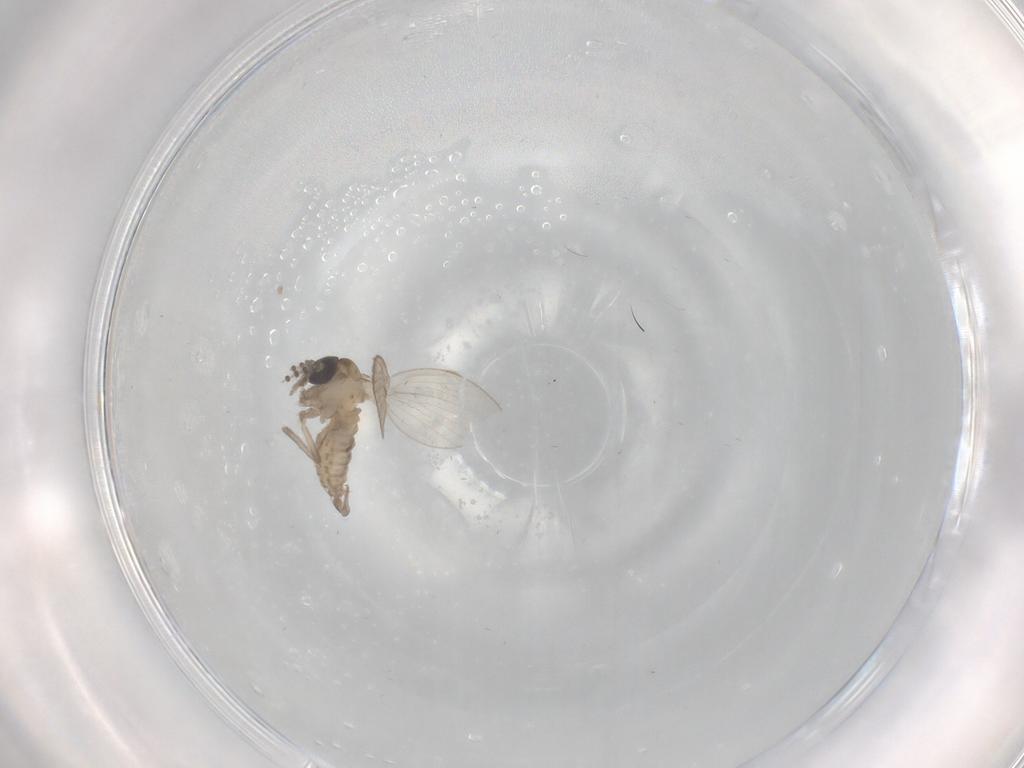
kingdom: Animalia
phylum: Arthropoda
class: Insecta
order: Diptera
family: Psychodidae
